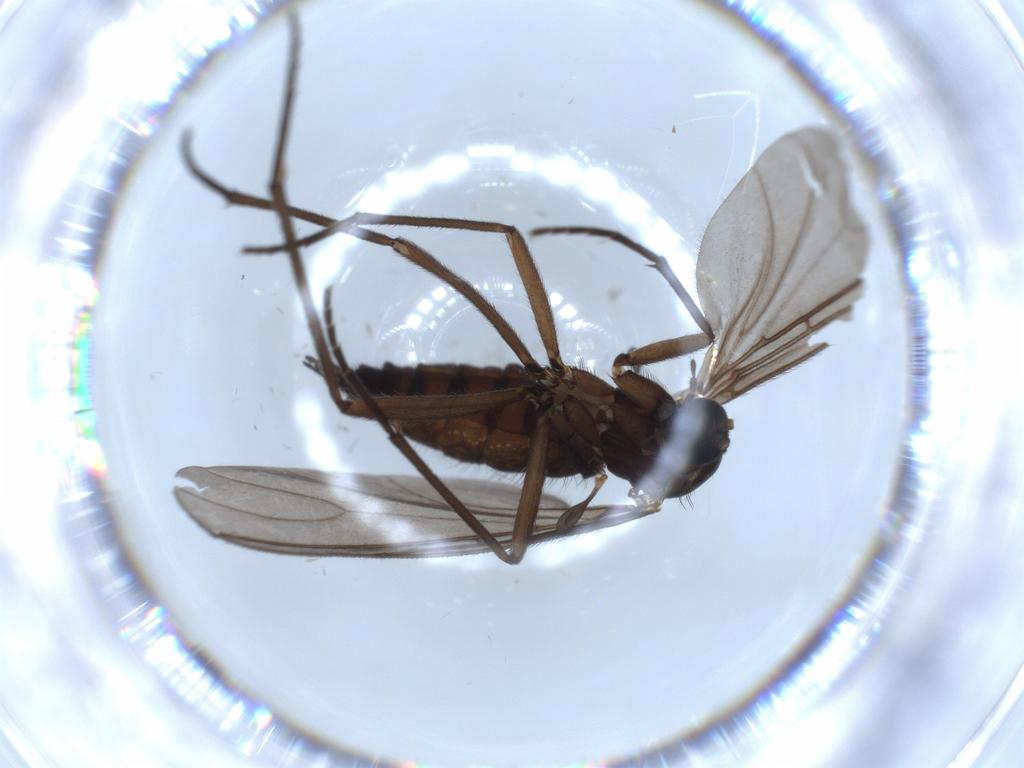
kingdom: Animalia
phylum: Arthropoda
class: Insecta
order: Diptera
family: Sciaridae
